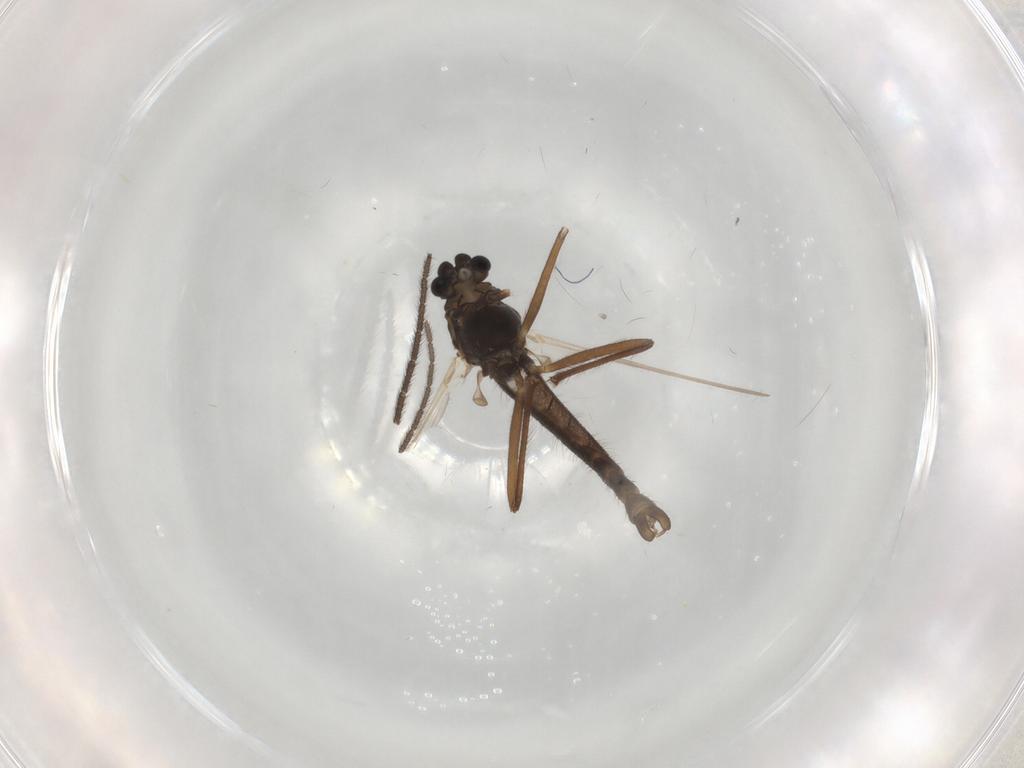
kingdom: Animalia
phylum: Arthropoda
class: Insecta
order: Diptera
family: Chironomidae
